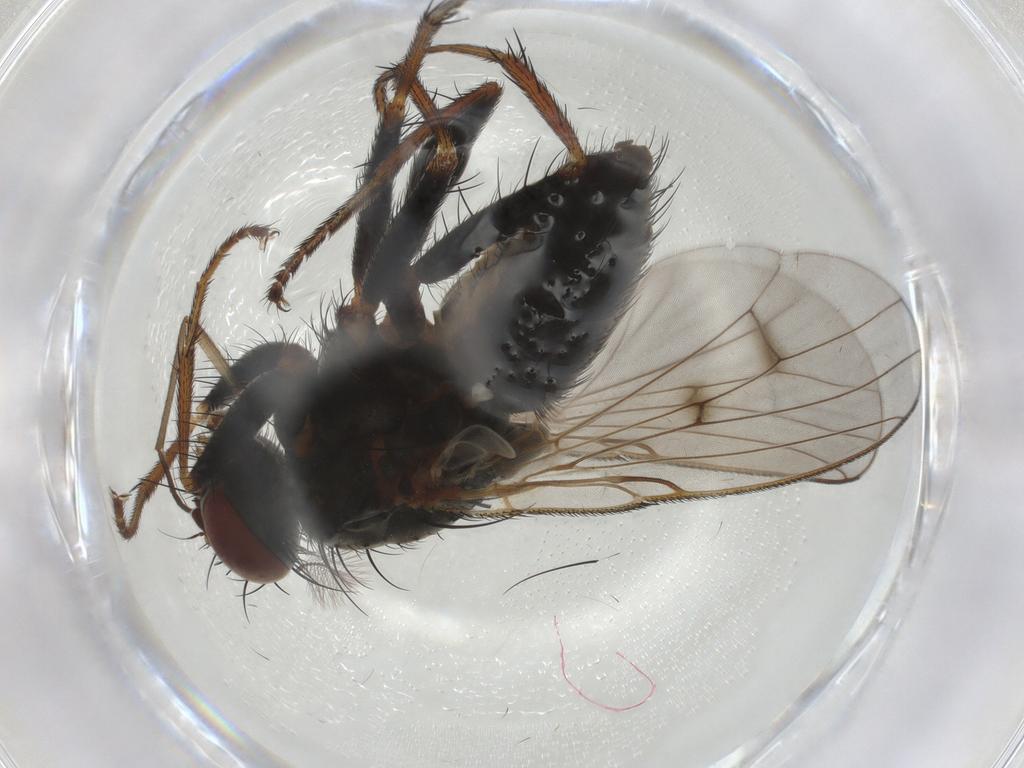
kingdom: Animalia
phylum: Arthropoda
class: Insecta
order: Diptera
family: Muscidae
